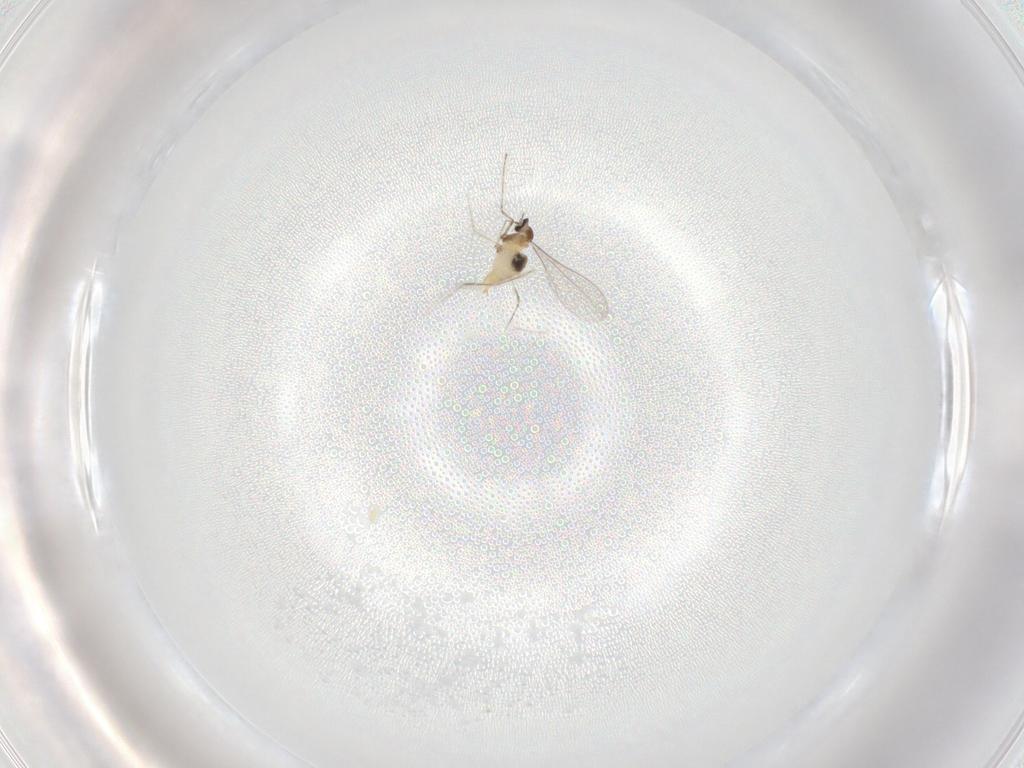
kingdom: Animalia
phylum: Arthropoda
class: Insecta
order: Diptera
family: Cecidomyiidae
